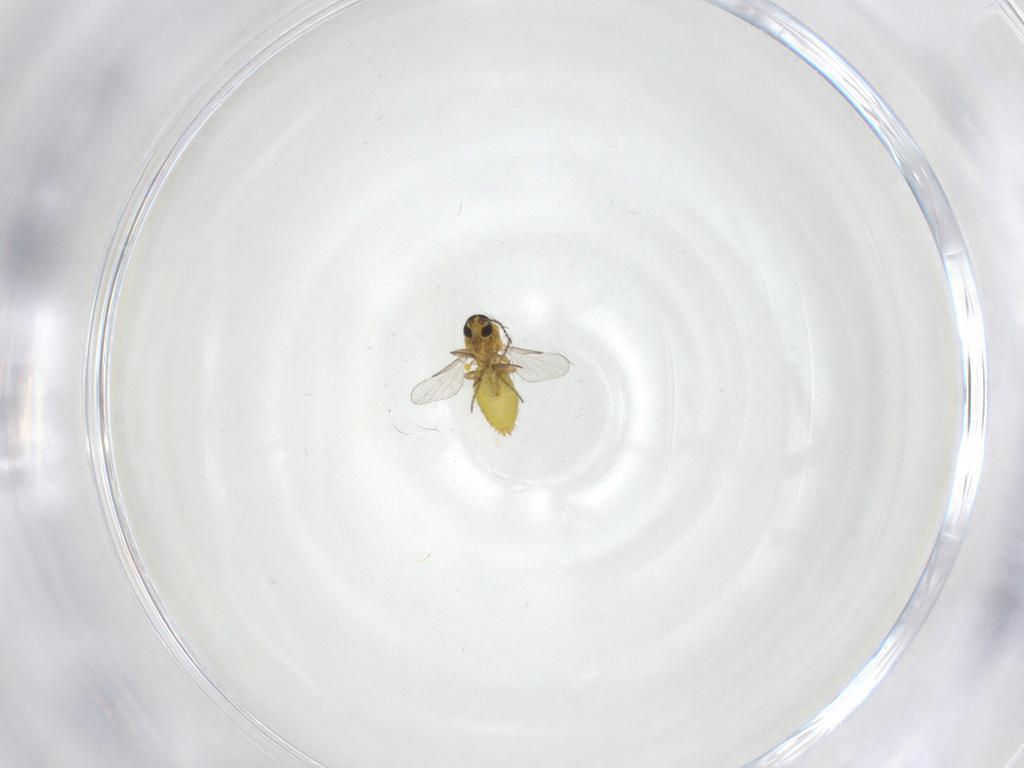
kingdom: Animalia
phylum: Arthropoda
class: Insecta
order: Diptera
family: Ceratopogonidae
